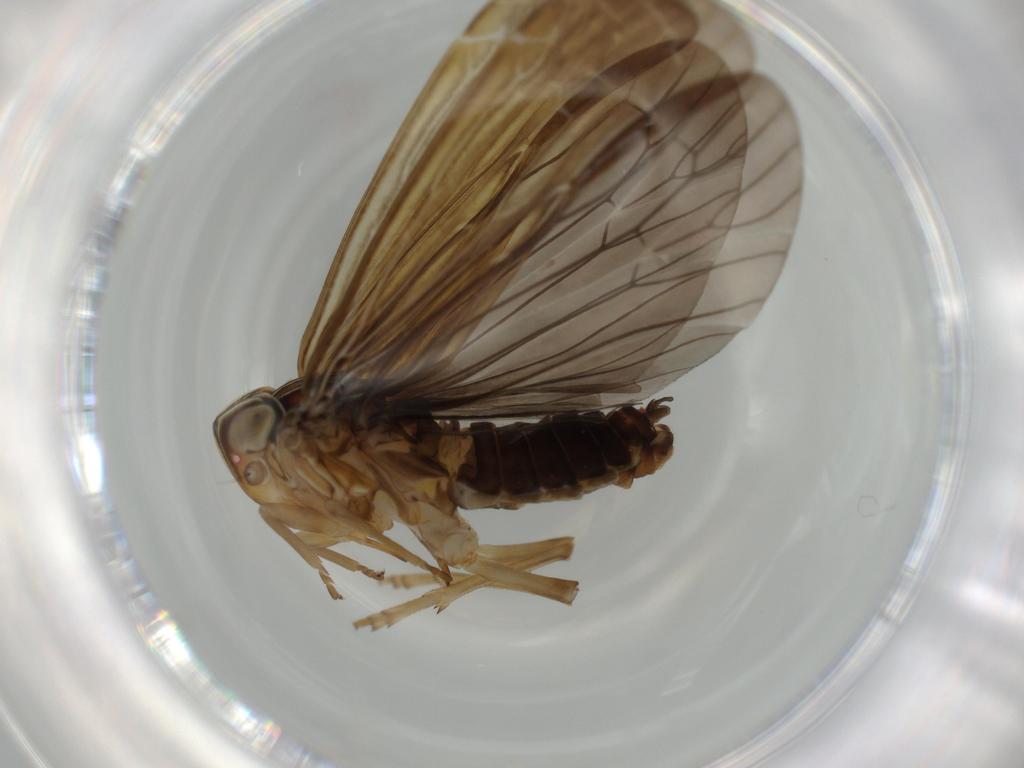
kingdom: Animalia
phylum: Arthropoda
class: Insecta
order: Hemiptera
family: Achilidae
